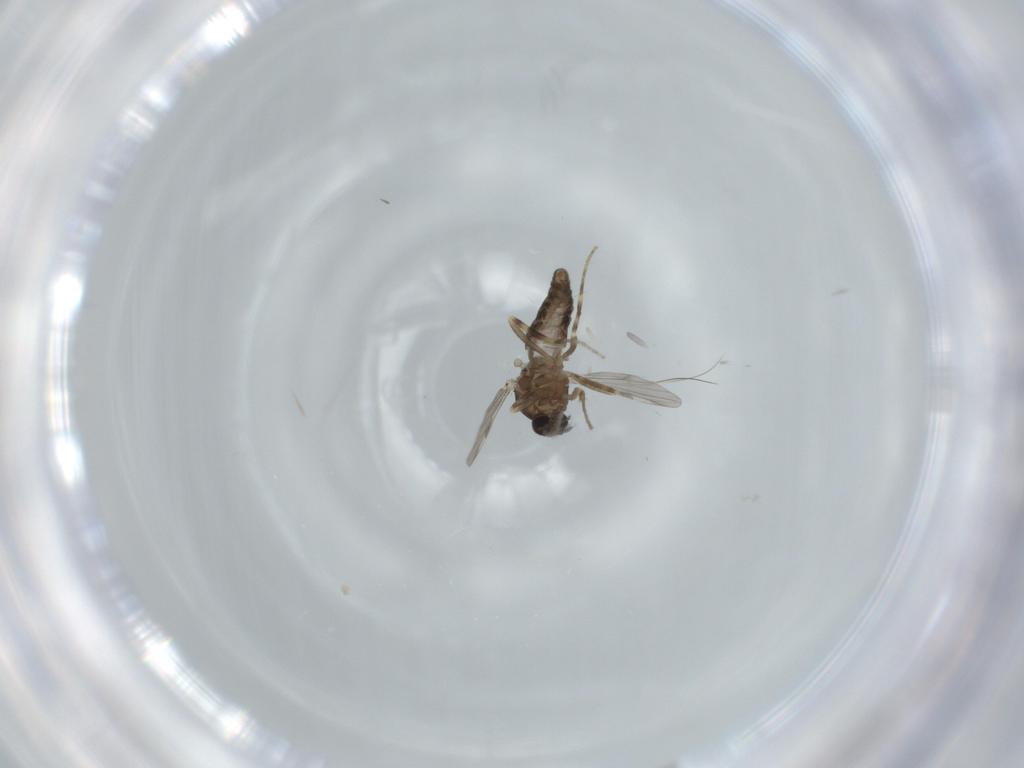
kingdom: Animalia
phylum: Arthropoda
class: Insecta
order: Diptera
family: Ceratopogonidae
